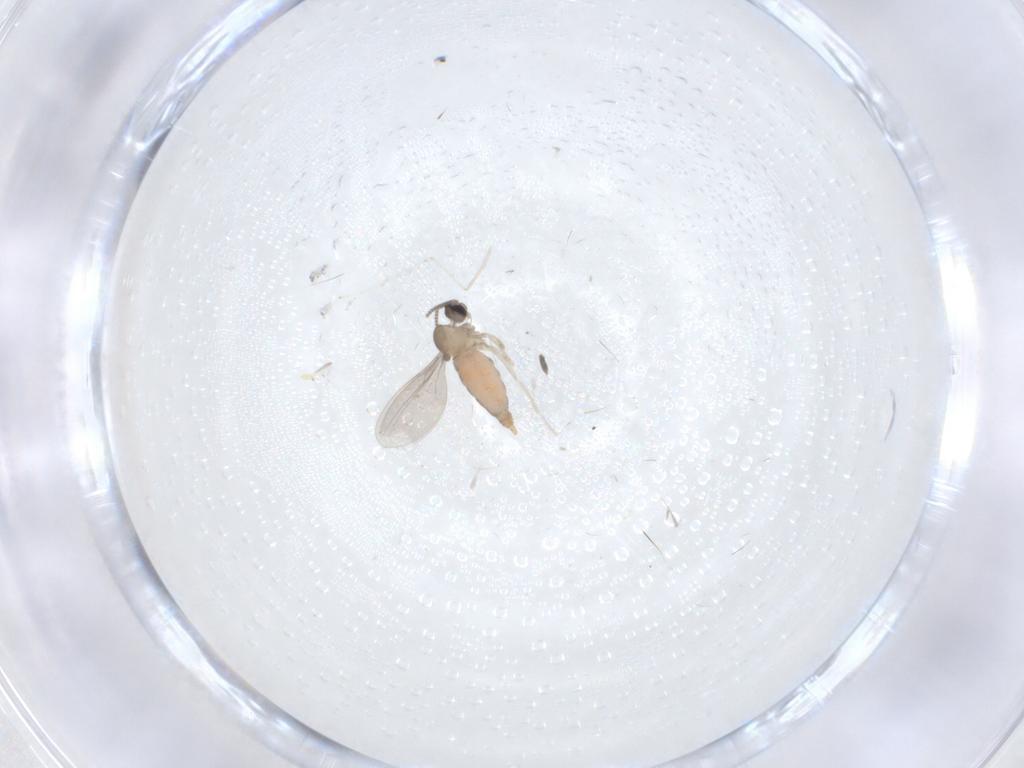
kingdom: Animalia
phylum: Arthropoda
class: Insecta
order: Diptera
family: Cecidomyiidae
